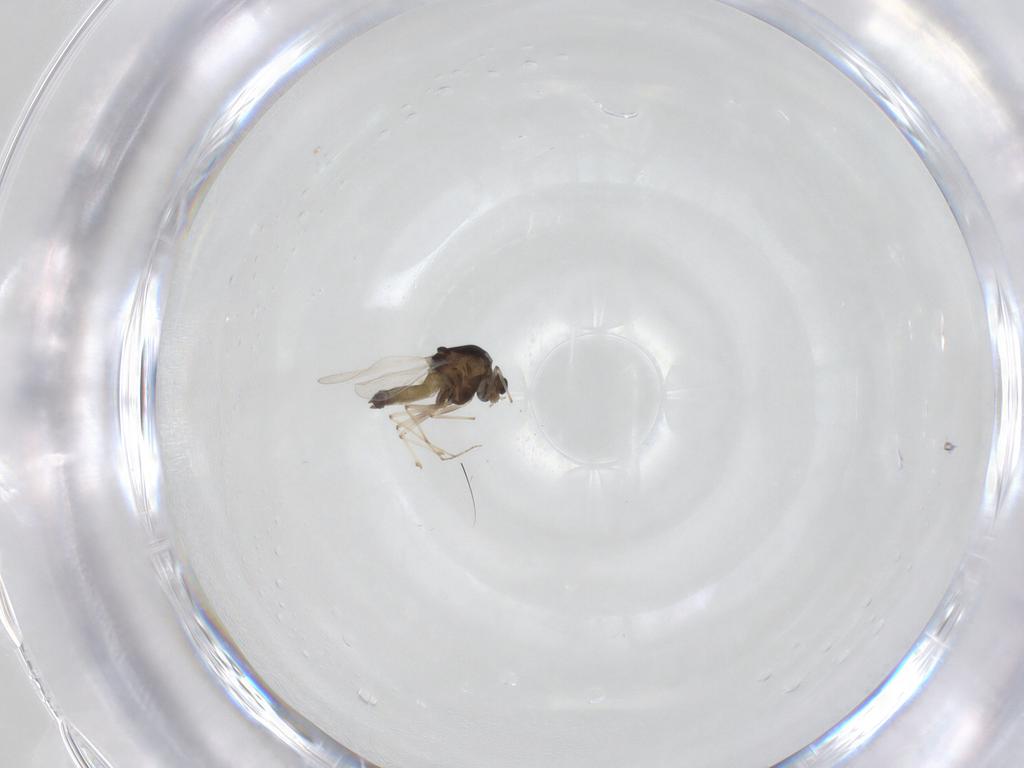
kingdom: Animalia
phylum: Arthropoda
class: Insecta
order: Diptera
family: Chironomidae
